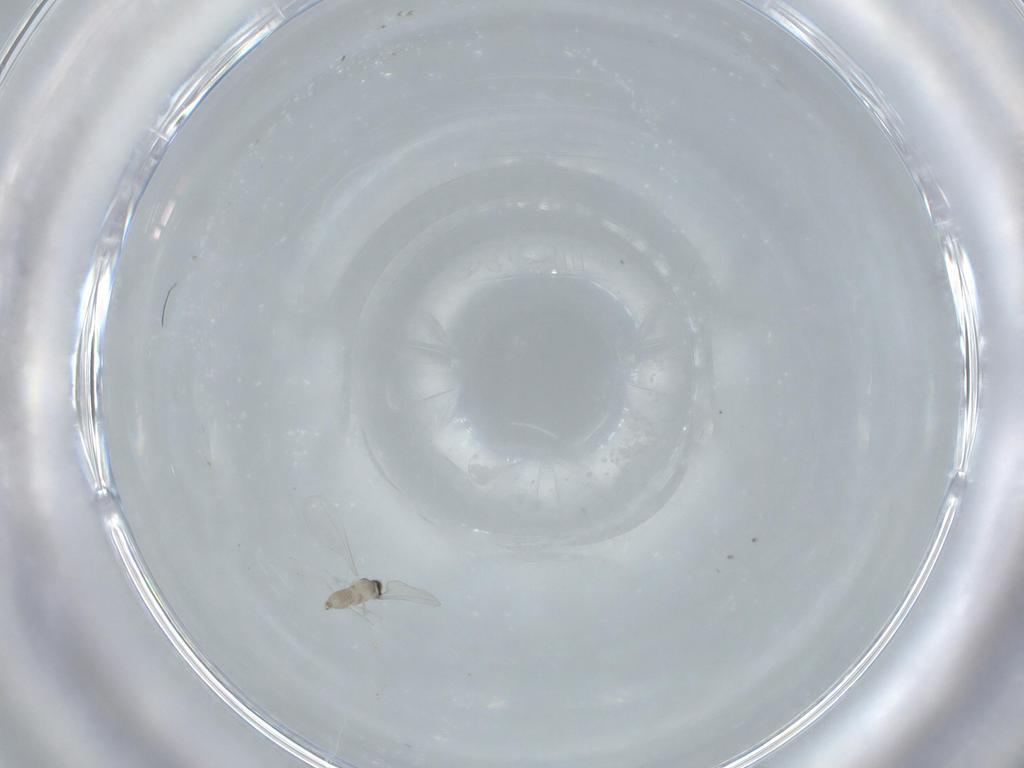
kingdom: Animalia
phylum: Arthropoda
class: Insecta
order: Diptera
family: Cecidomyiidae
